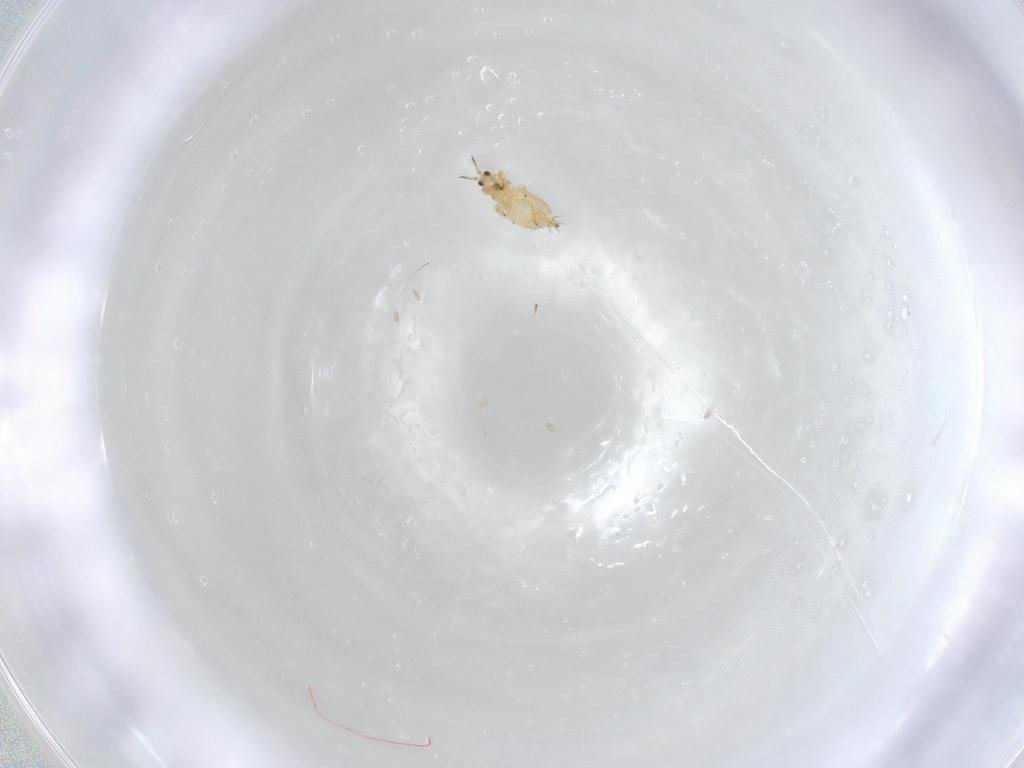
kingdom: Animalia
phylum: Arthropoda
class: Insecta
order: Thysanoptera
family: Thripidae
